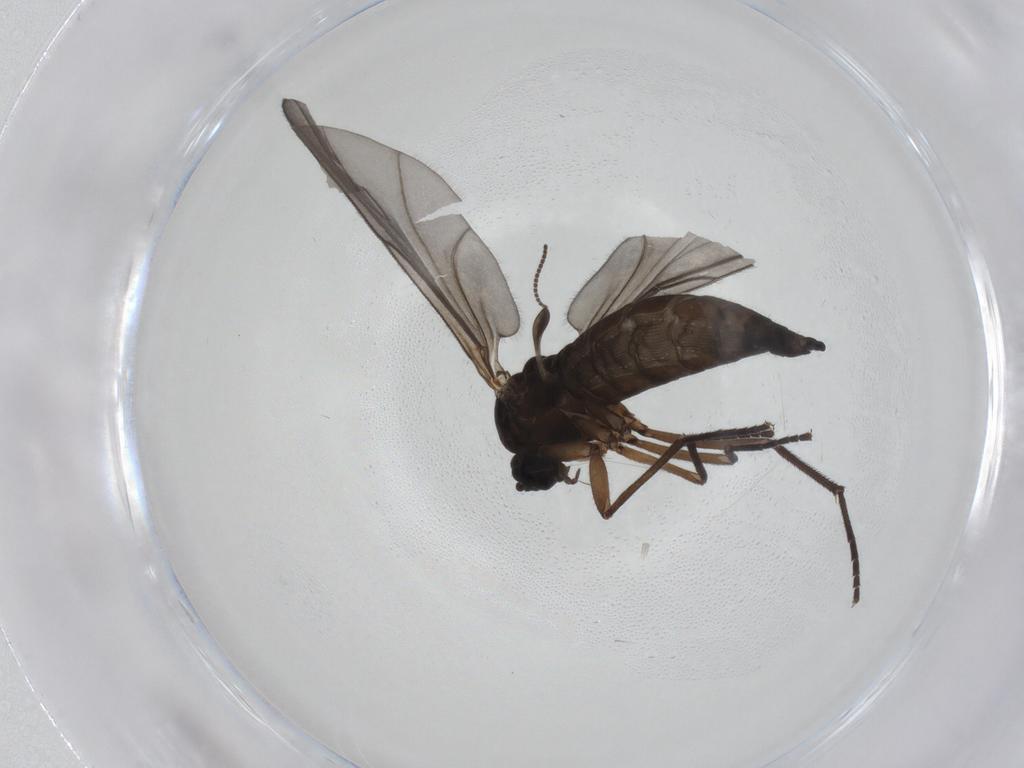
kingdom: Animalia
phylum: Arthropoda
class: Insecta
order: Diptera
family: Sciaridae
